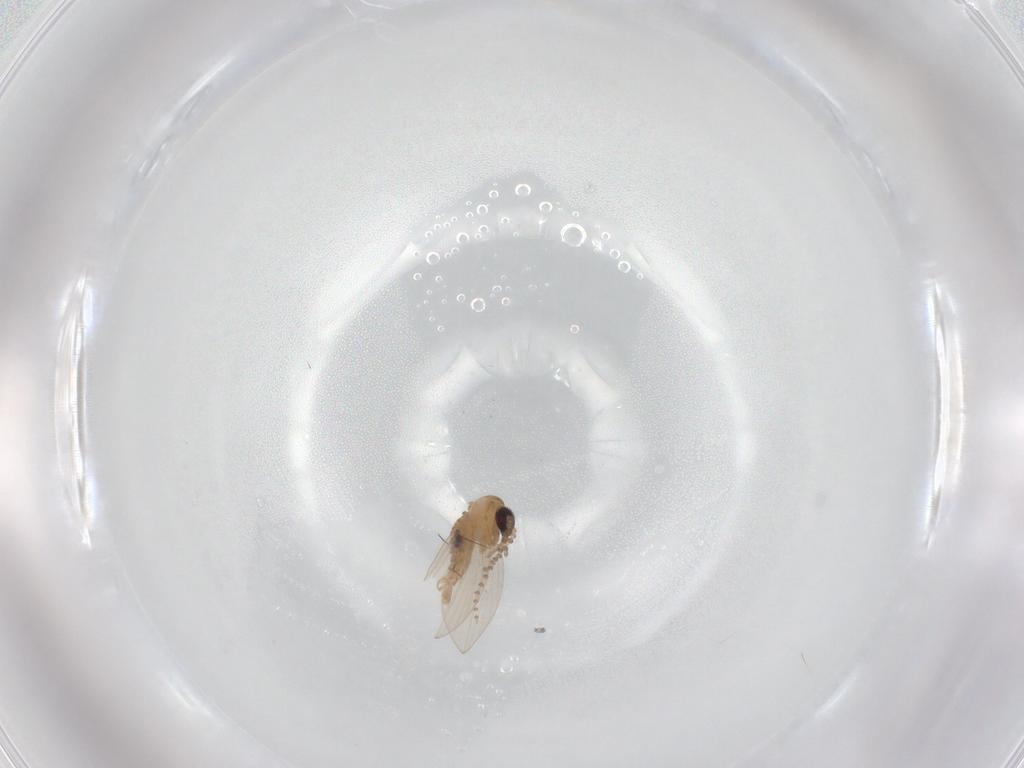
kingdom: Animalia
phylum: Arthropoda
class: Insecta
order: Diptera
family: Psychodidae
